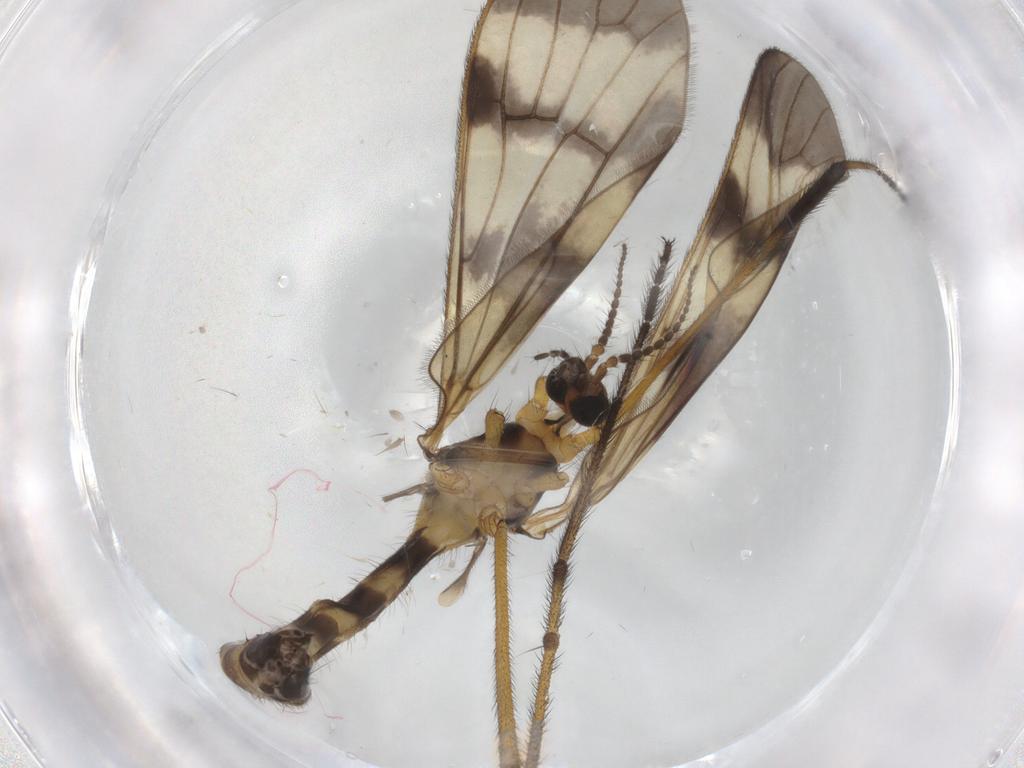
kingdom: Animalia
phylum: Arthropoda
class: Insecta
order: Diptera
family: Limoniidae
